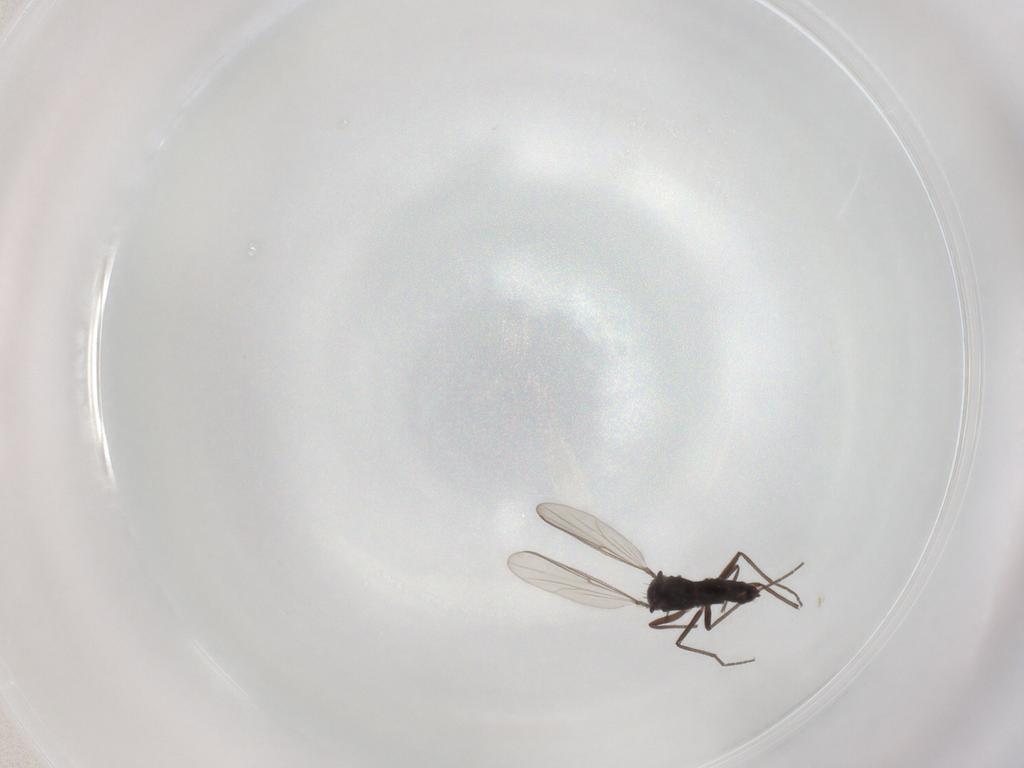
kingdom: Animalia
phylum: Arthropoda
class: Insecta
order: Diptera
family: Chironomidae
